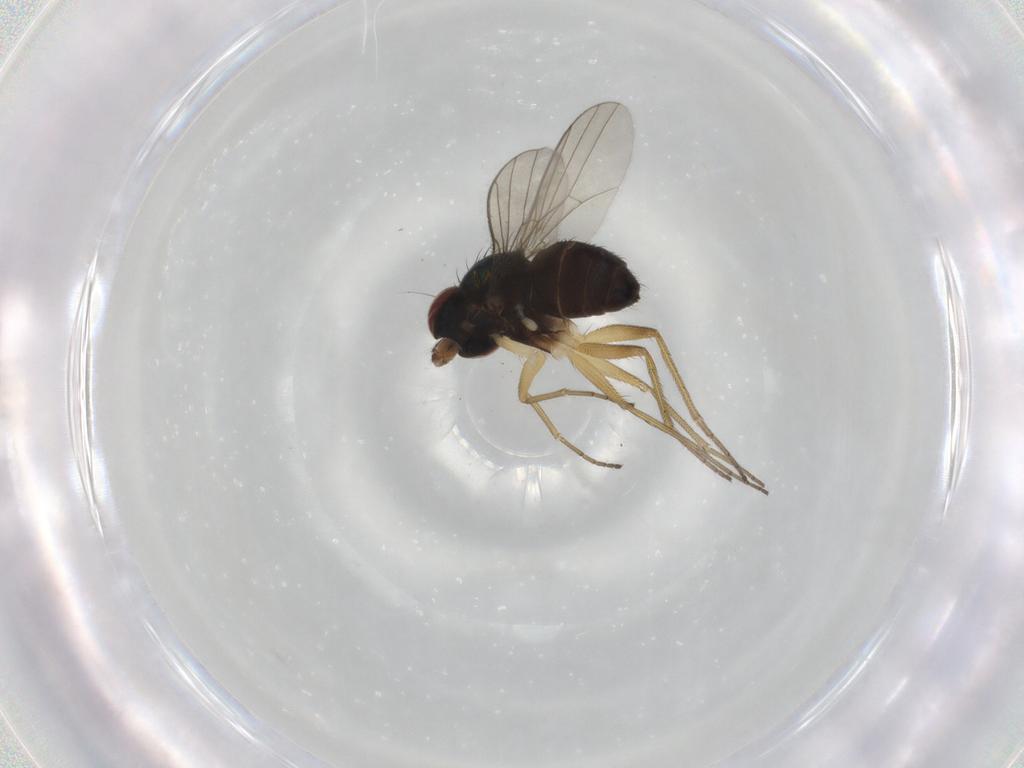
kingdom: Animalia
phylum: Arthropoda
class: Insecta
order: Diptera
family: Dolichopodidae
